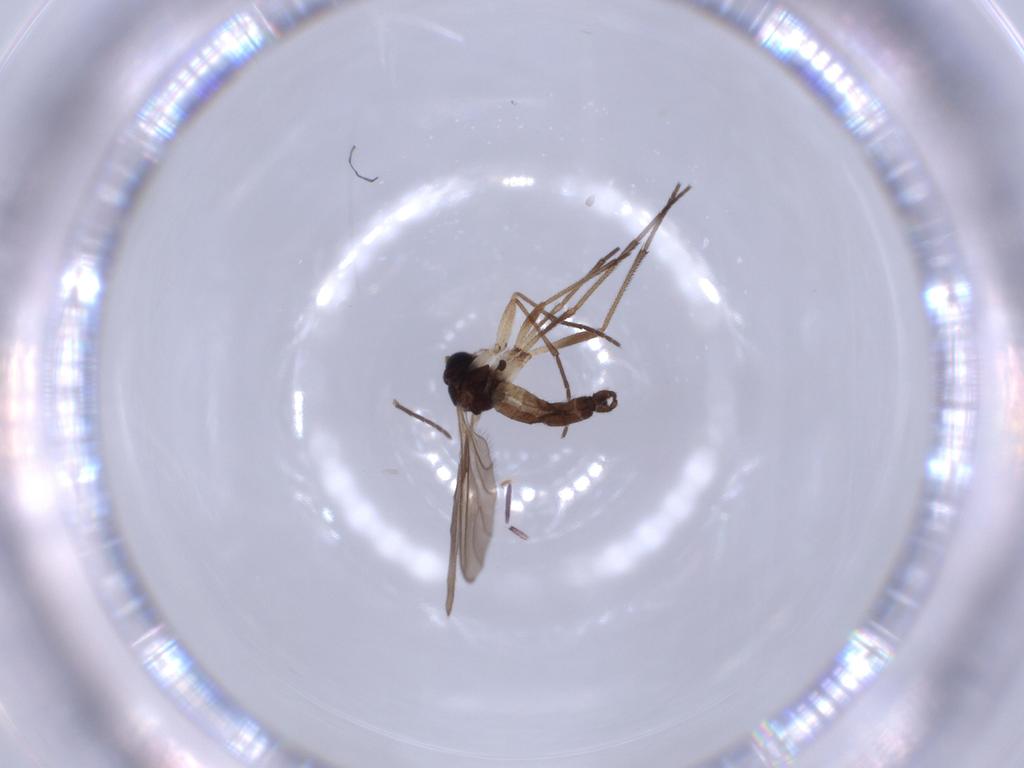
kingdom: Animalia
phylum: Arthropoda
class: Insecta
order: Diptera
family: Sciaridae
